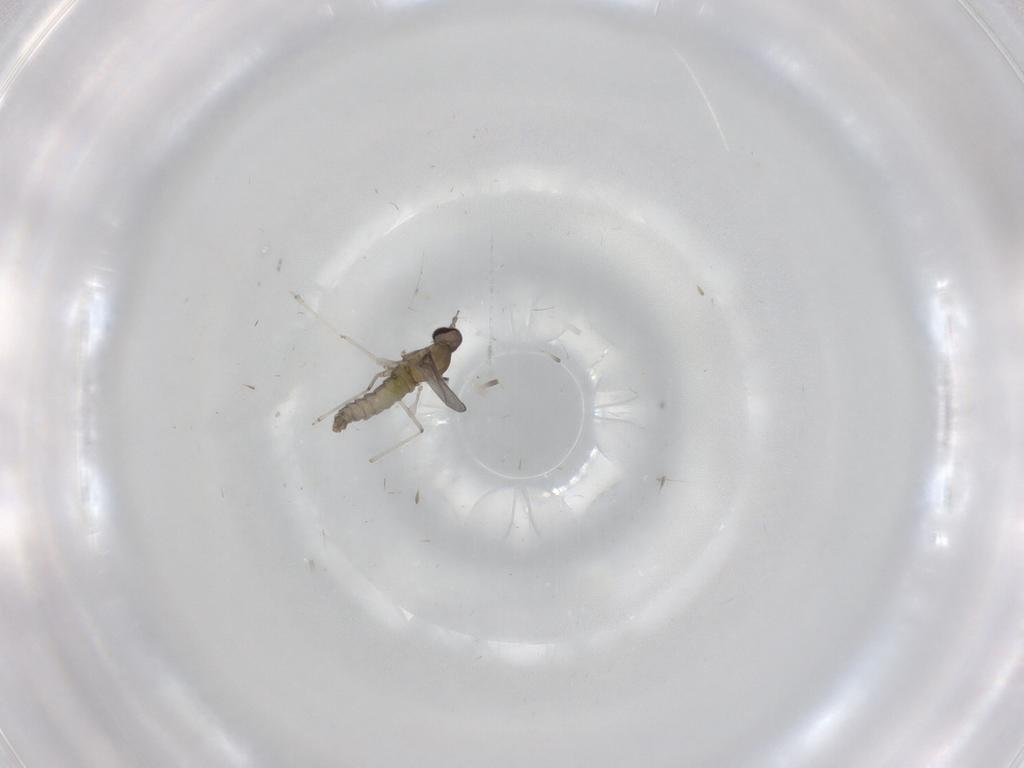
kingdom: Animalia
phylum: Arthropoda
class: Insecta
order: Diptera
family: Cecidomyiidae
